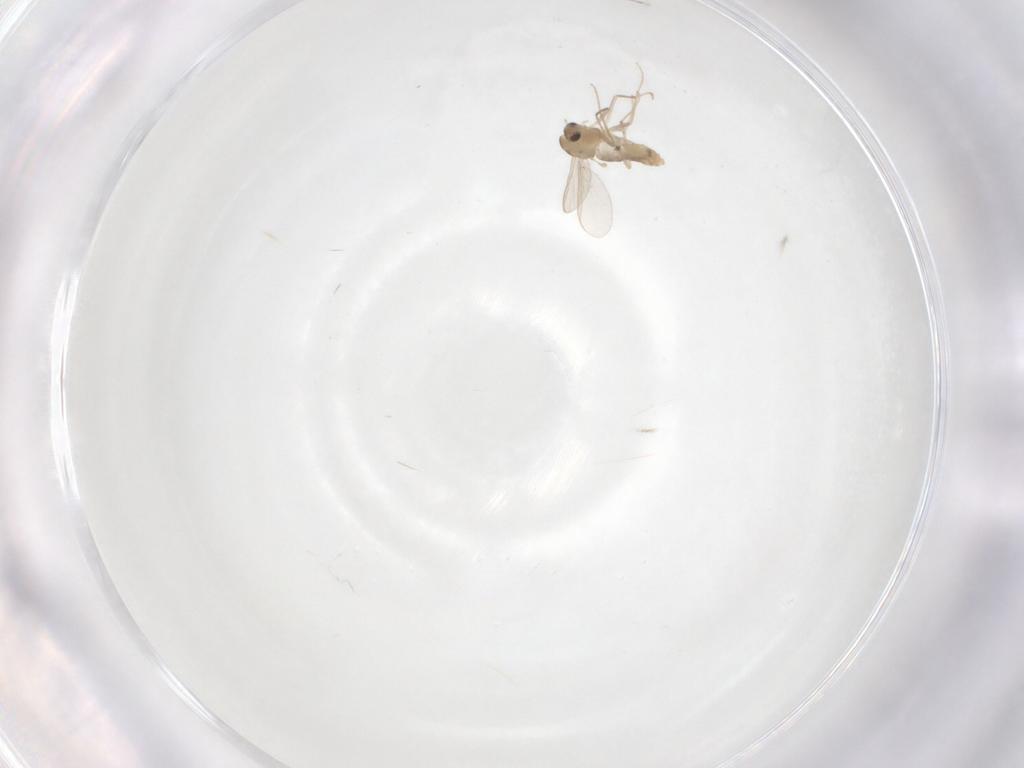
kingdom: Animalia
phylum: Arthropoda
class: Insecta
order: Diptera
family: Chironomidae
